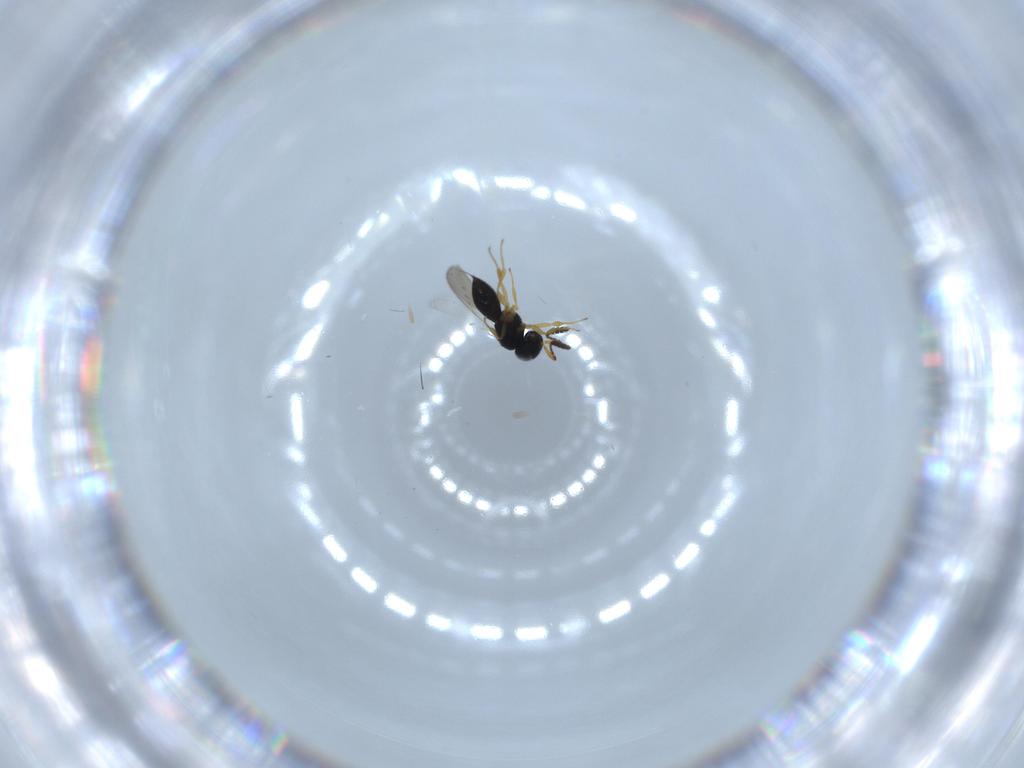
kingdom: Animalia
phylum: Arthropoda
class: Insecta
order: Hymenoptera
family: Scelionidae
